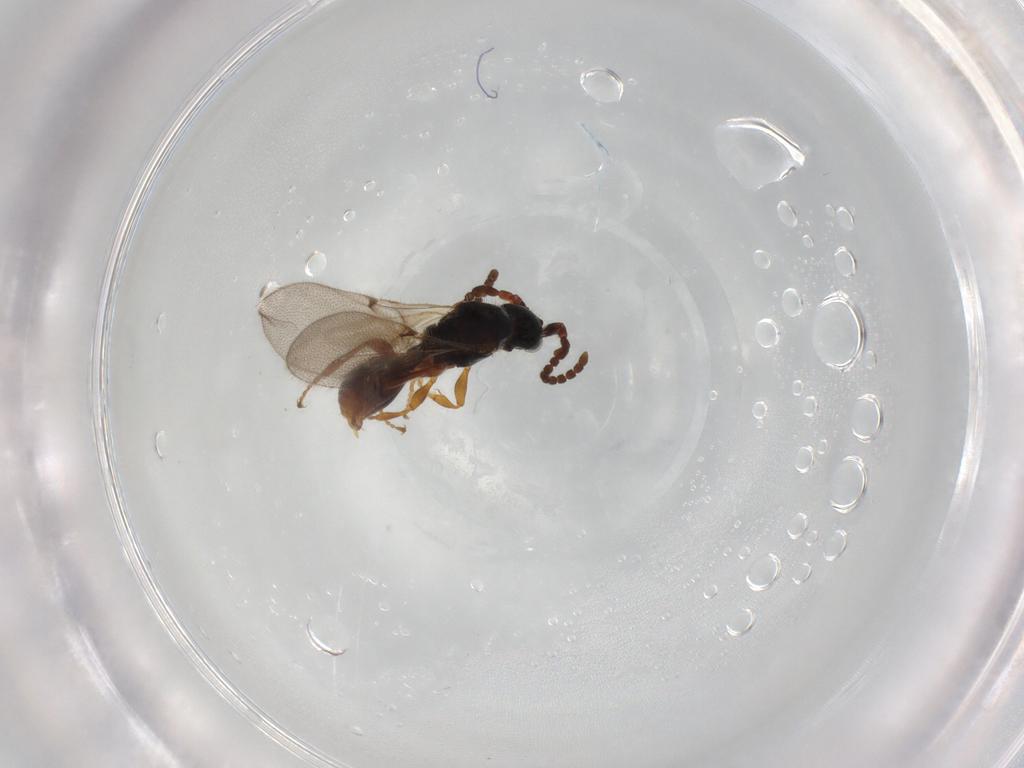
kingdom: Animalia
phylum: Arthropoda
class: Insecta
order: Hymenoptera
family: Diapriidae
